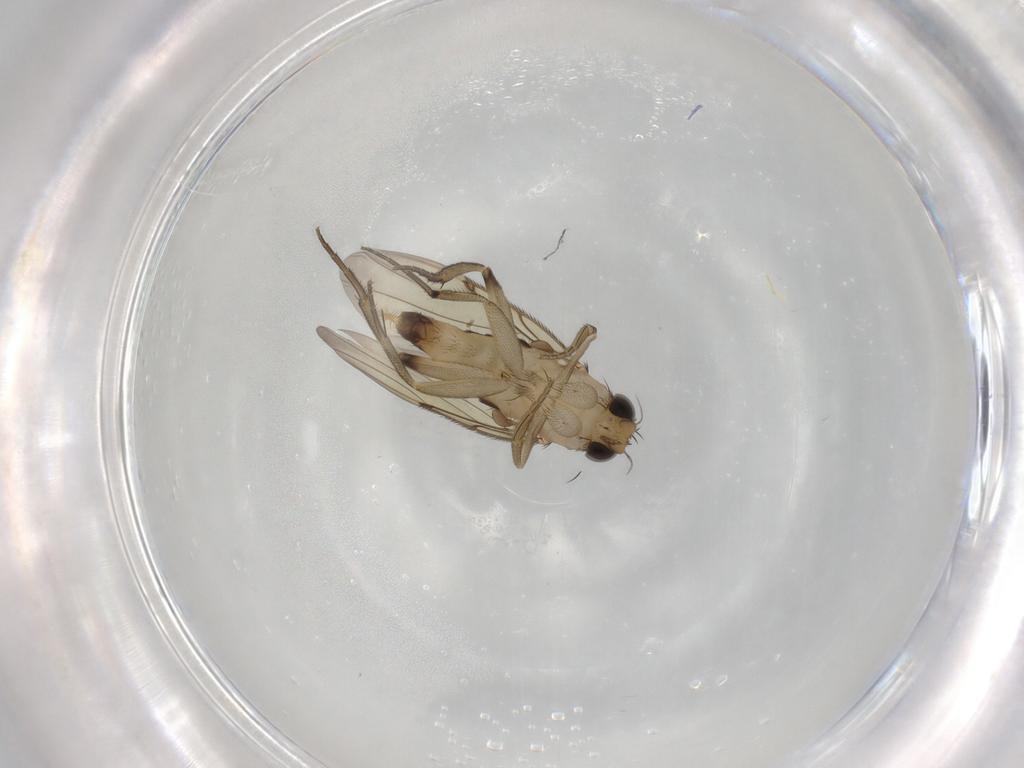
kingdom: Animalia
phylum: Arthropoda
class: Insecta
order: Diptera
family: Phoridae
